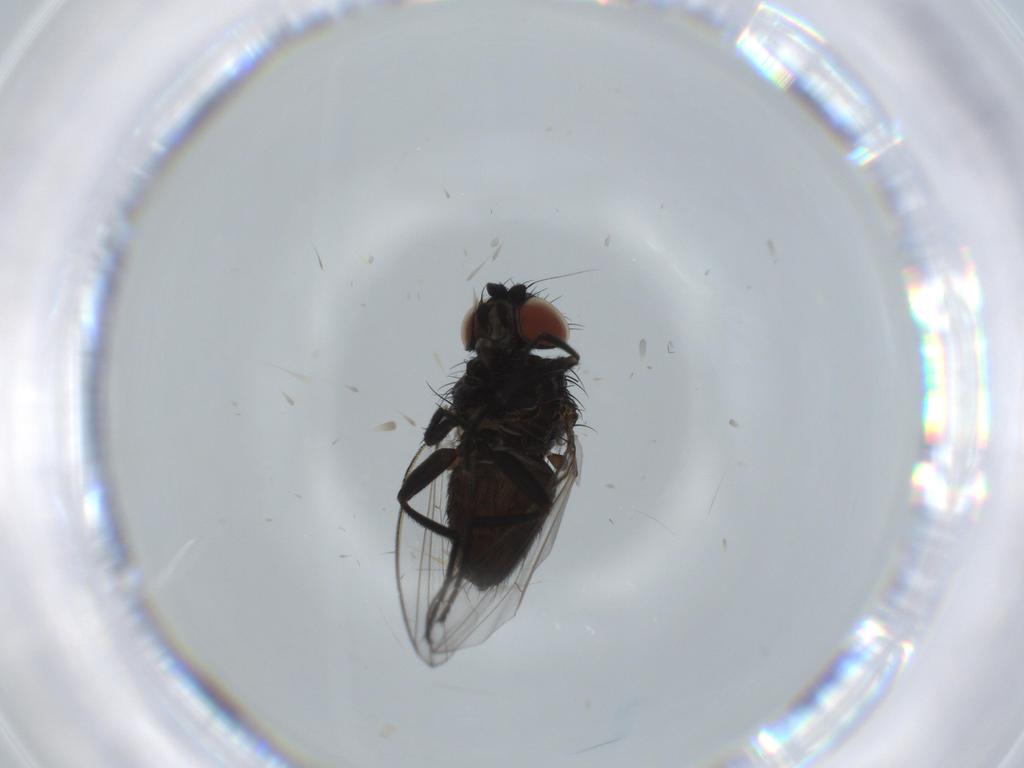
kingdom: Animalia
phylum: Arthropoda
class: Insecta
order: Diptera
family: Milichiidae
